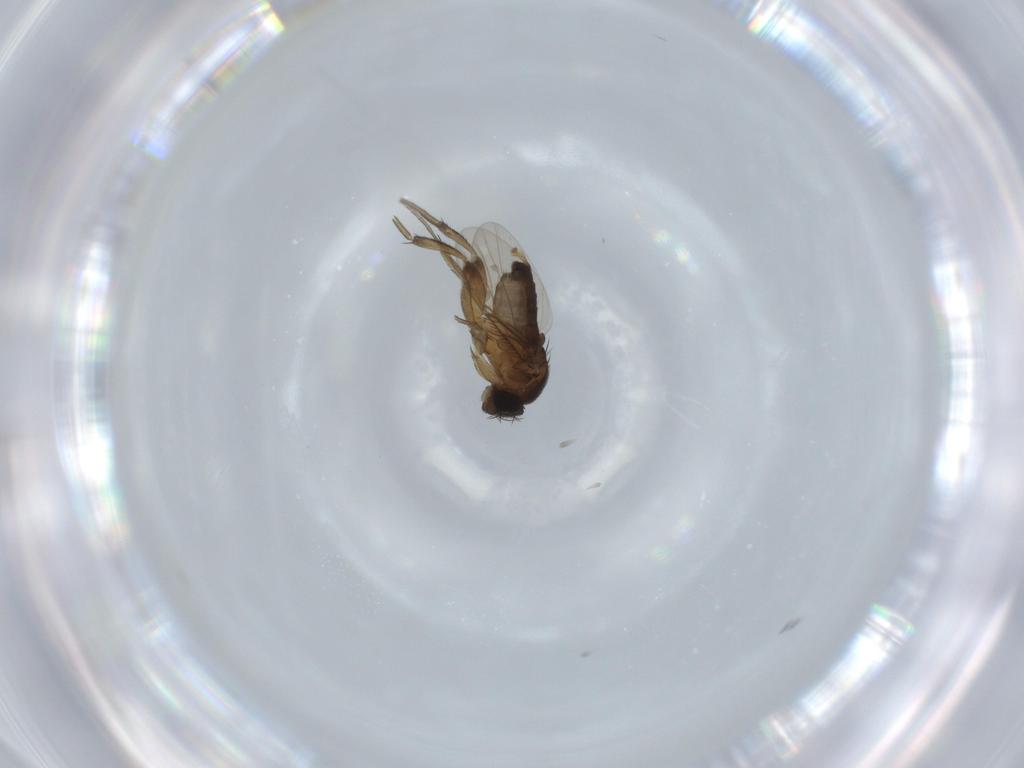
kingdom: Animalia
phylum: Arthropoda
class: Insecta
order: Diptera
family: Phoridae
